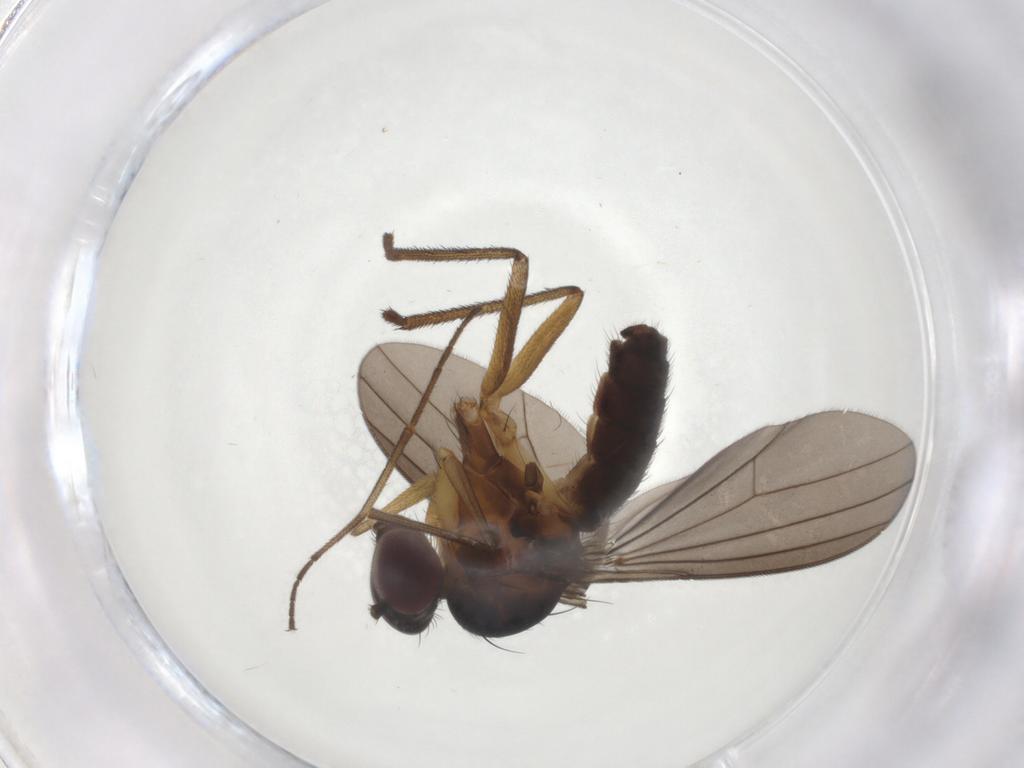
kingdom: Animalia
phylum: Arthropoda
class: Insecta
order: Diptera
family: Dolichopodidae
